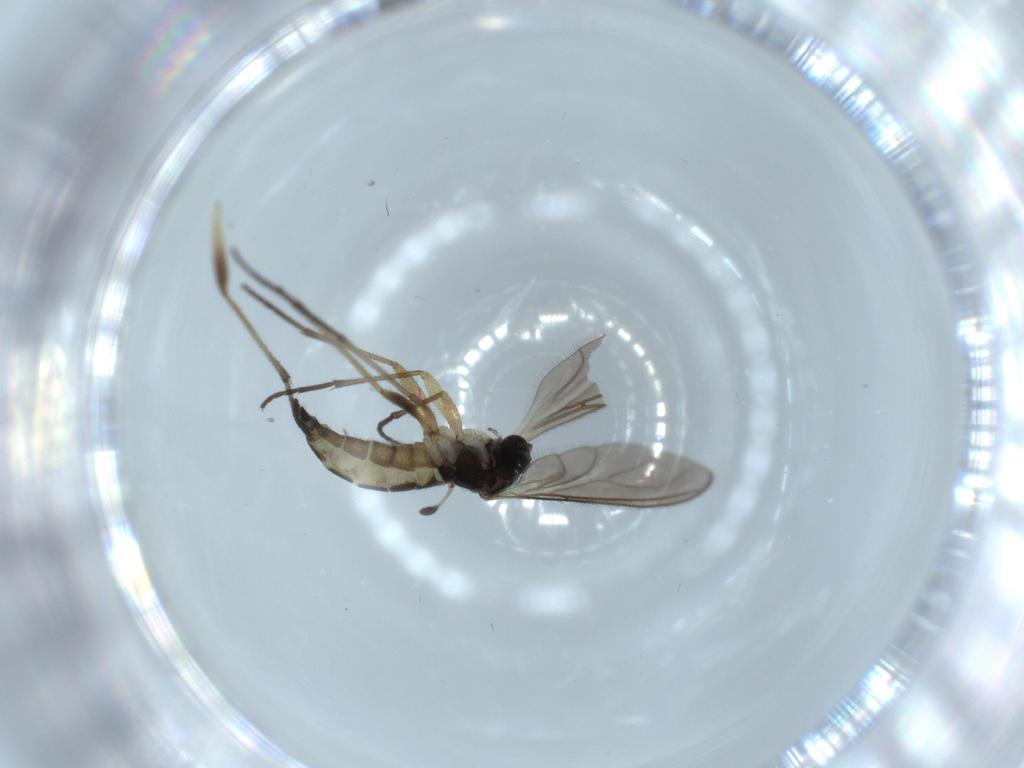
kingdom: Animalia
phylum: Arthropoda
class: Insecta
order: Diptera
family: Sciaridae
